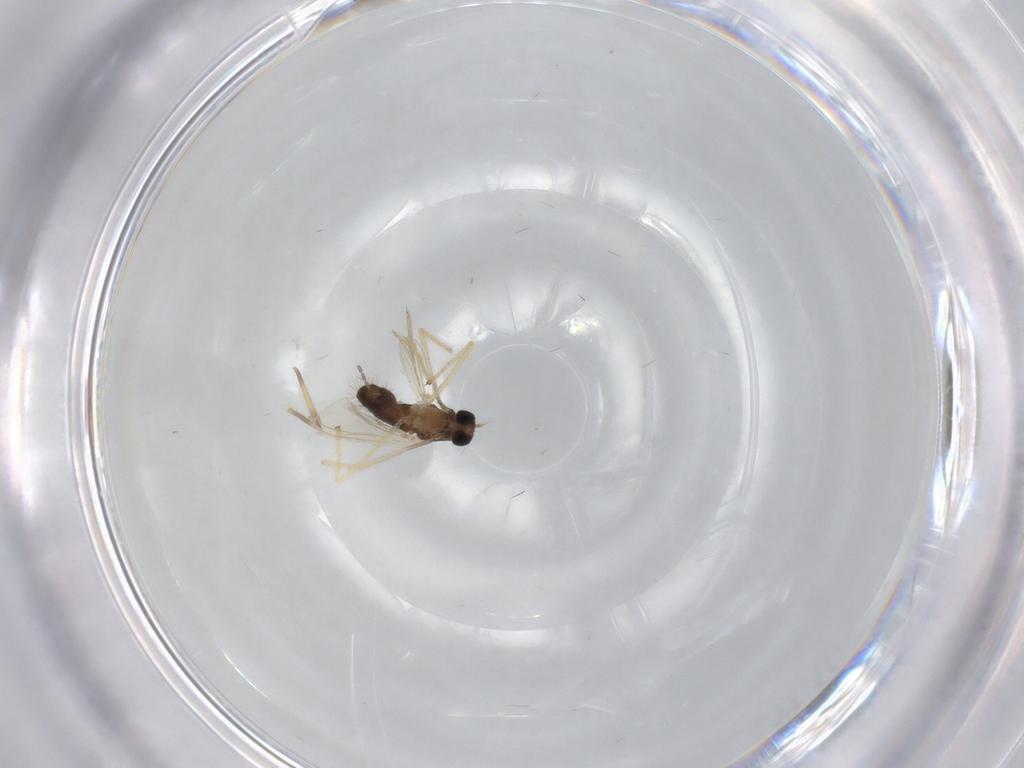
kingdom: Animalia
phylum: Arthropoda
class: Insecta
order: Diptera
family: Chironomidae
